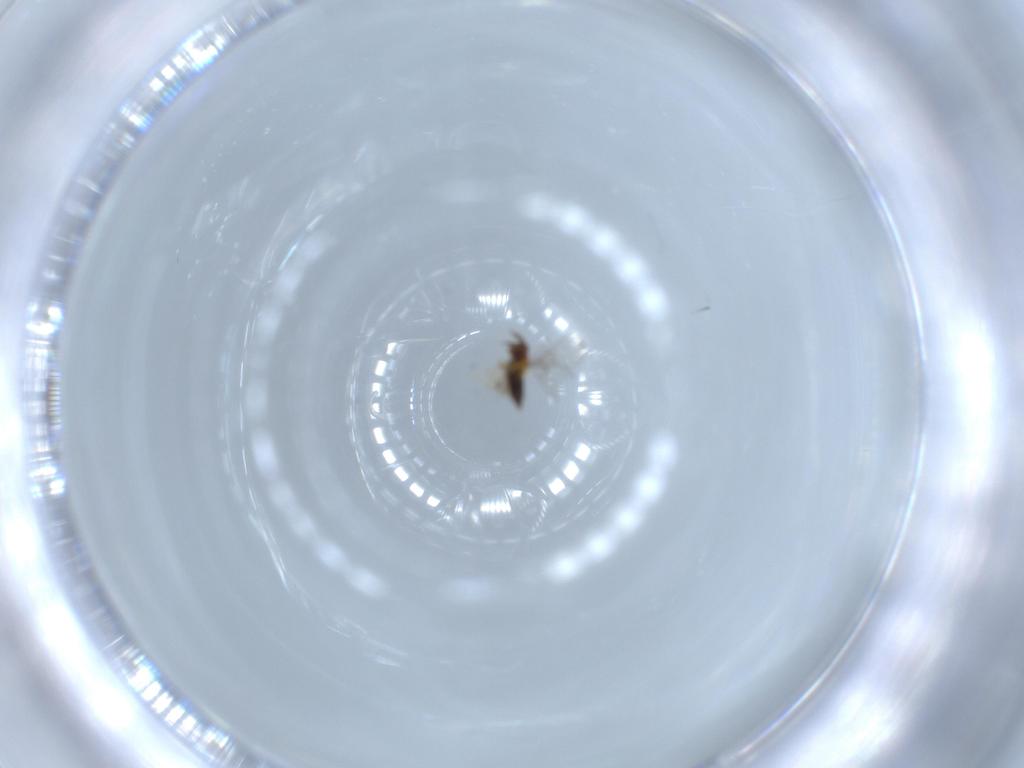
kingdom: Animalia
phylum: Arthropoda
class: Insecta
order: Hymenoptera
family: Trichogrammatidae
